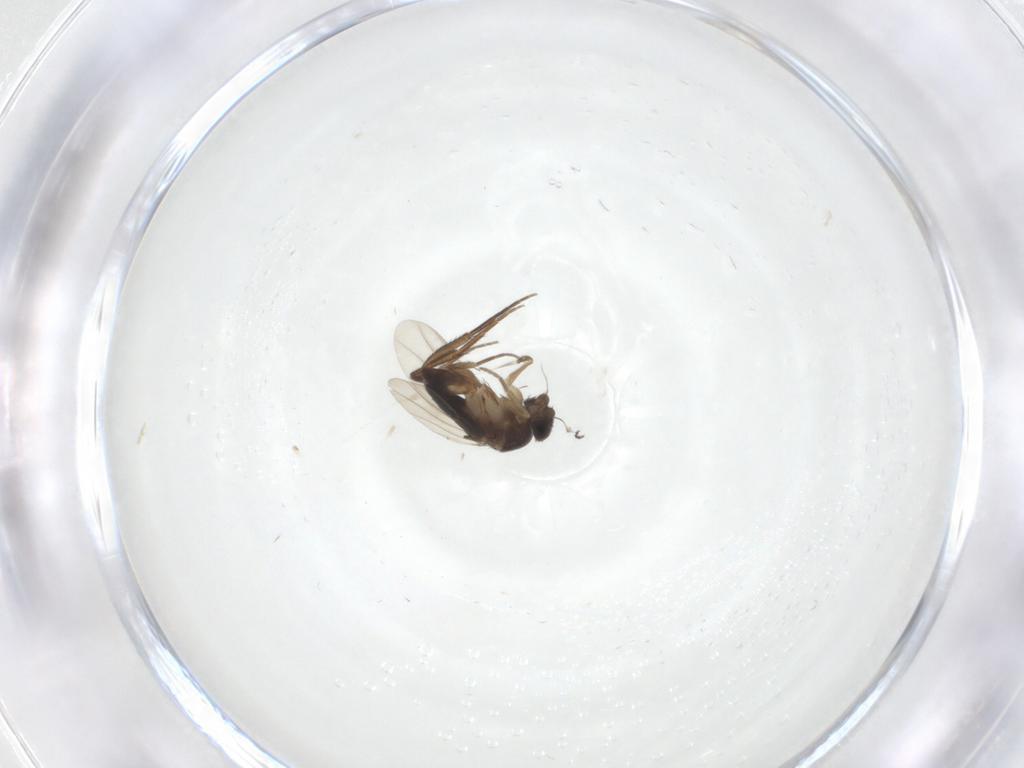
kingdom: Animalia
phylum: Arthropoda
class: Insecta
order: Diptera
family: Phoridae
